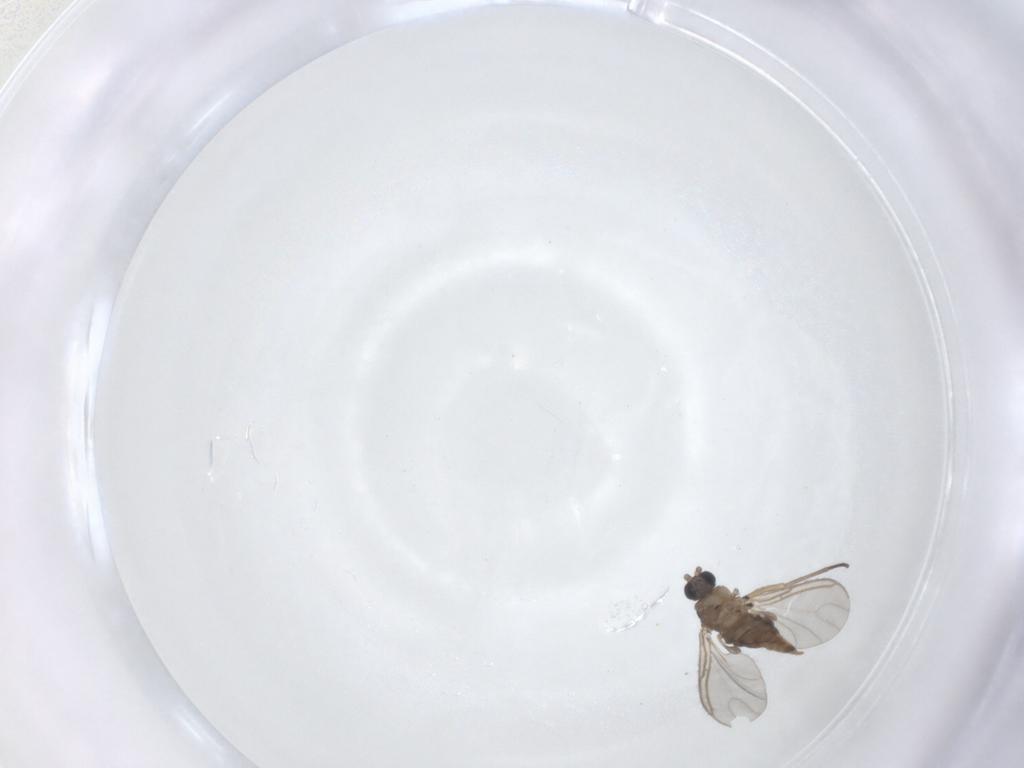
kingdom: Animalia
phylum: Arthropoda
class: Insecta
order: Diptera
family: Sciaridae
